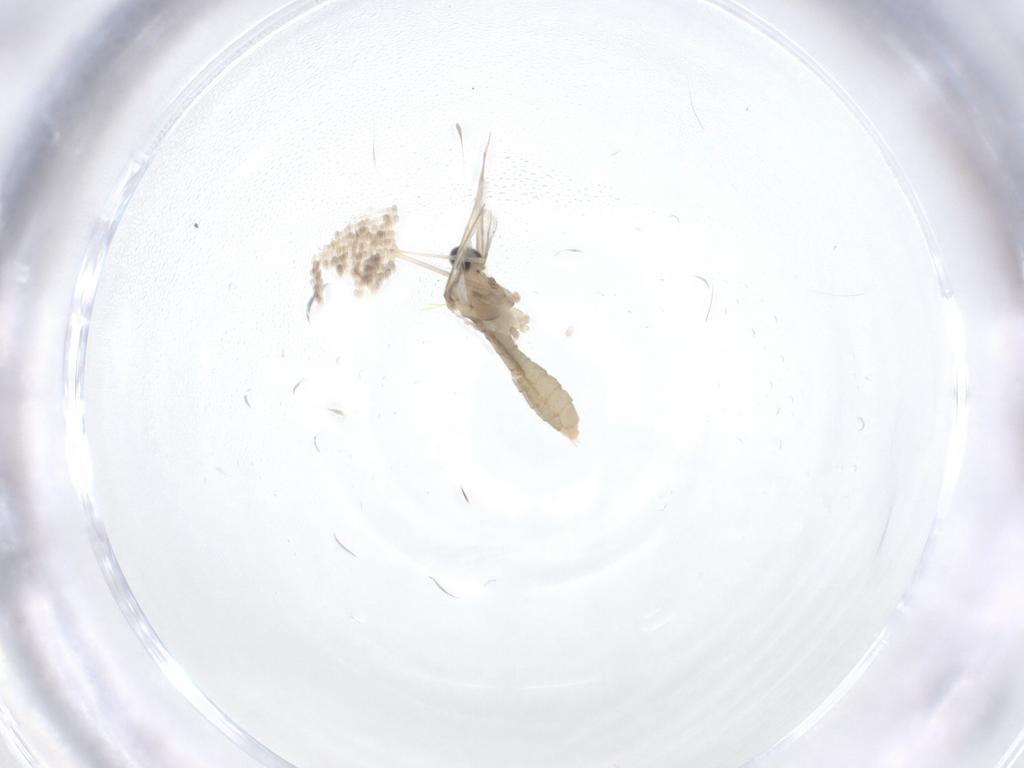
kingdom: Animalia
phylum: Arthropoda
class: Insecta
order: Diptera
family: Cecidomyiidae
